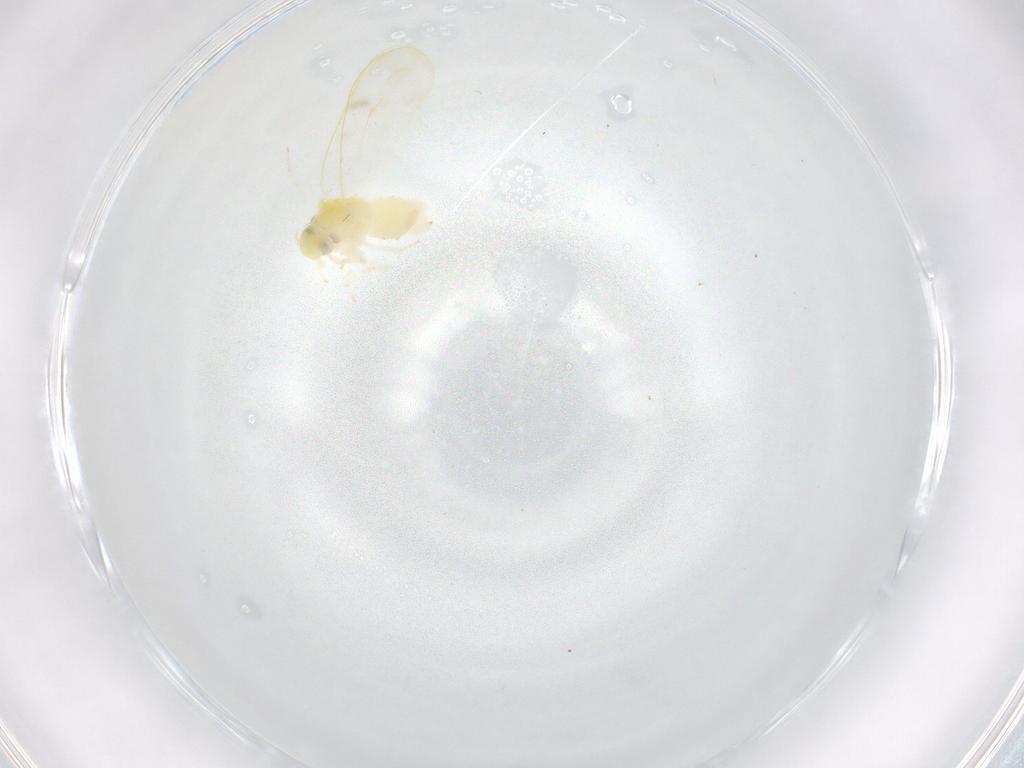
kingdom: Animalia
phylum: Arthropoda
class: Insecta
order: Hemiptera
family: Aleyrodidae
